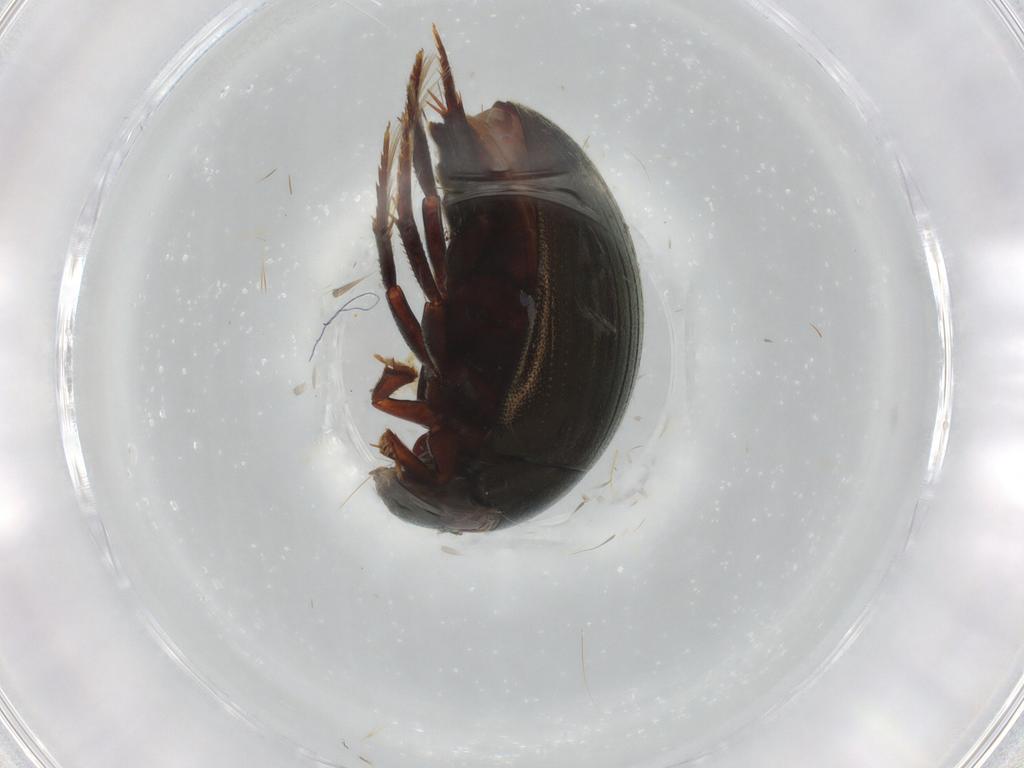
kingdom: Animalia
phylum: Arthropoda
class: Insecta
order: Coleoptera
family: Hydrophilidae
